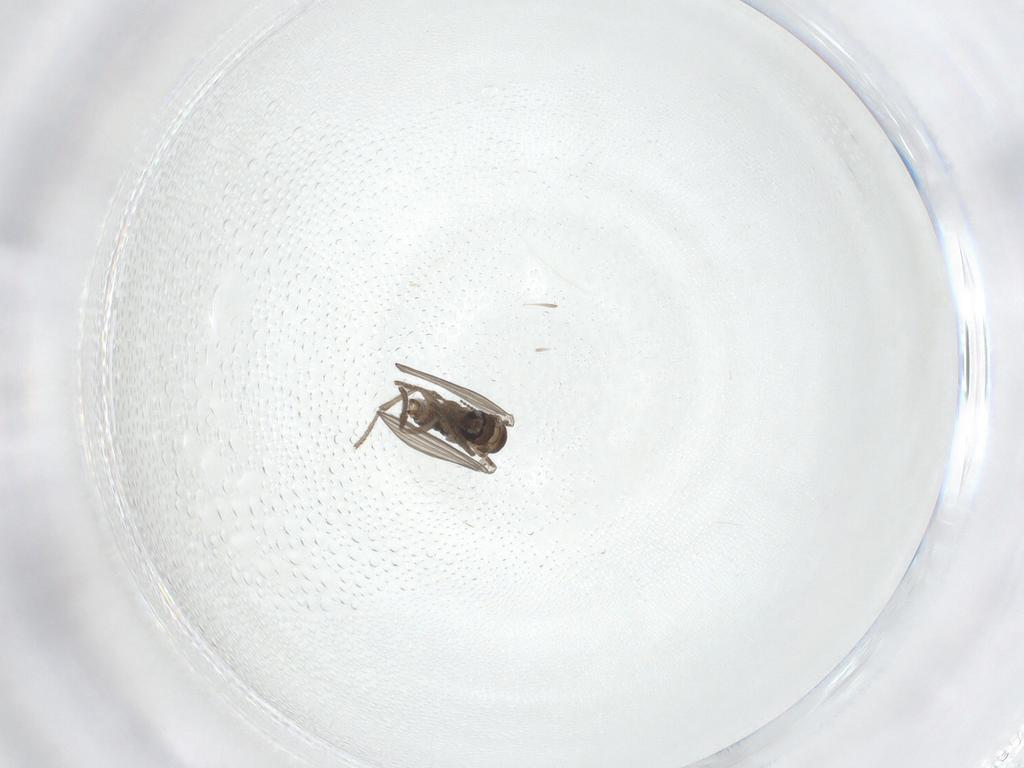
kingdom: Animalia
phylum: Arthropoda
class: Insecta
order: Diptera
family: Psychodidae
